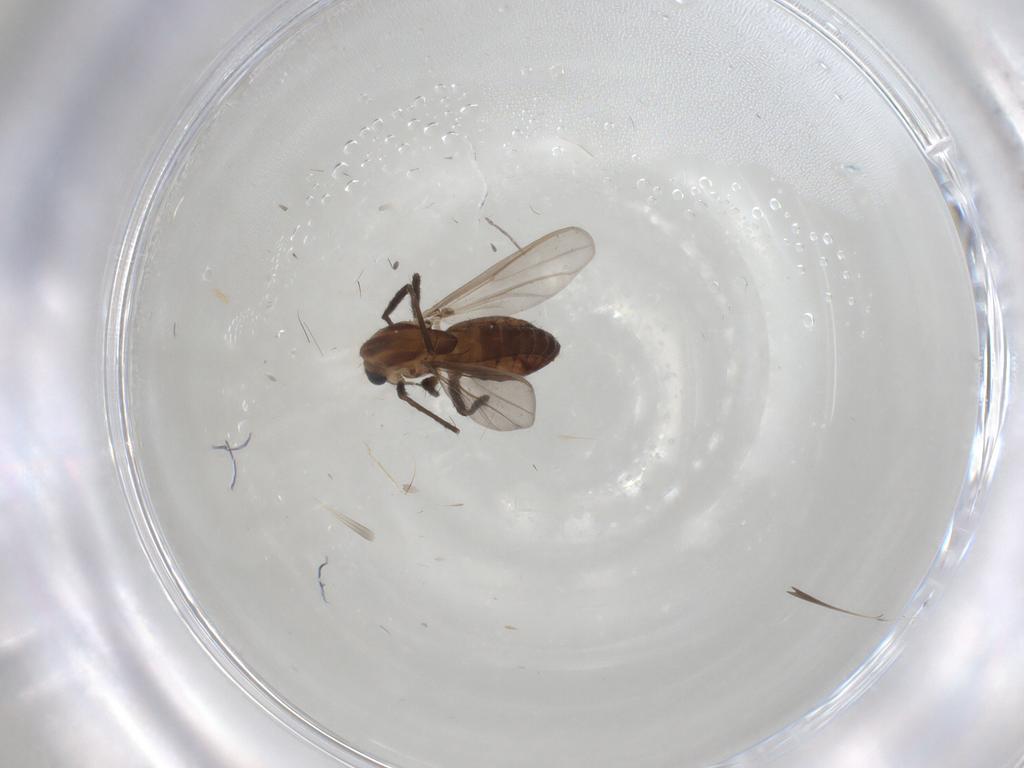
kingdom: Animalia
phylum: Arthropoda
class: Insecta
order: Diptera
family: Chironomidae
